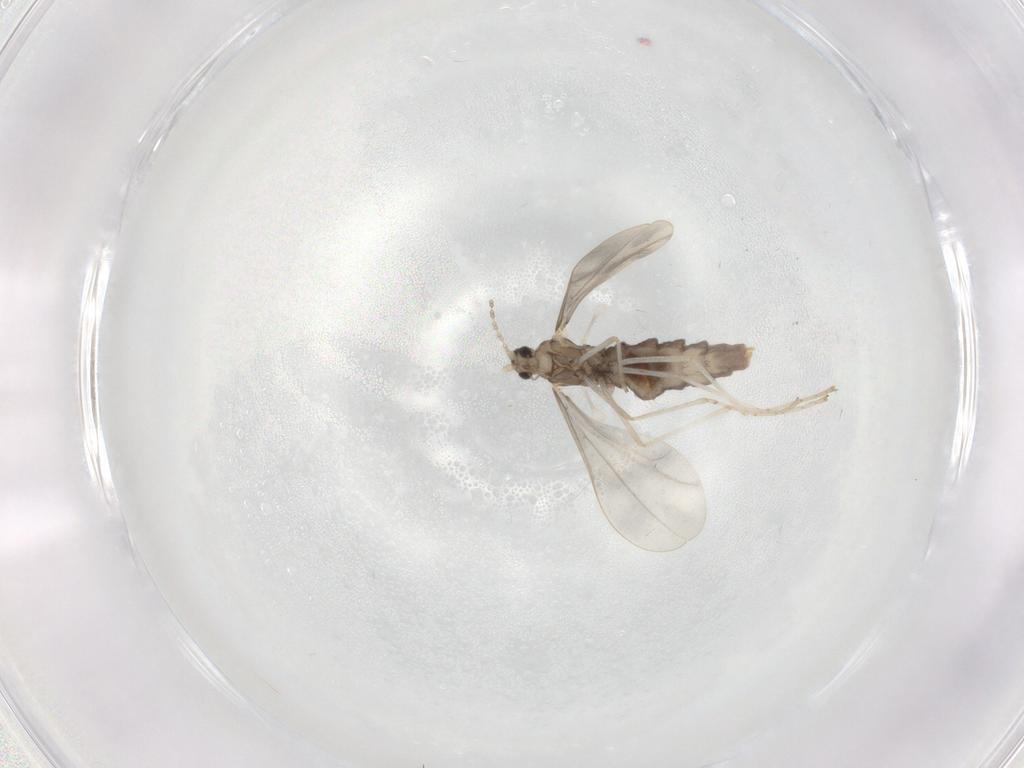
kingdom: Animalia
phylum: Arthropoda
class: Insecta
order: Diptera
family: Cecidomyiidae
